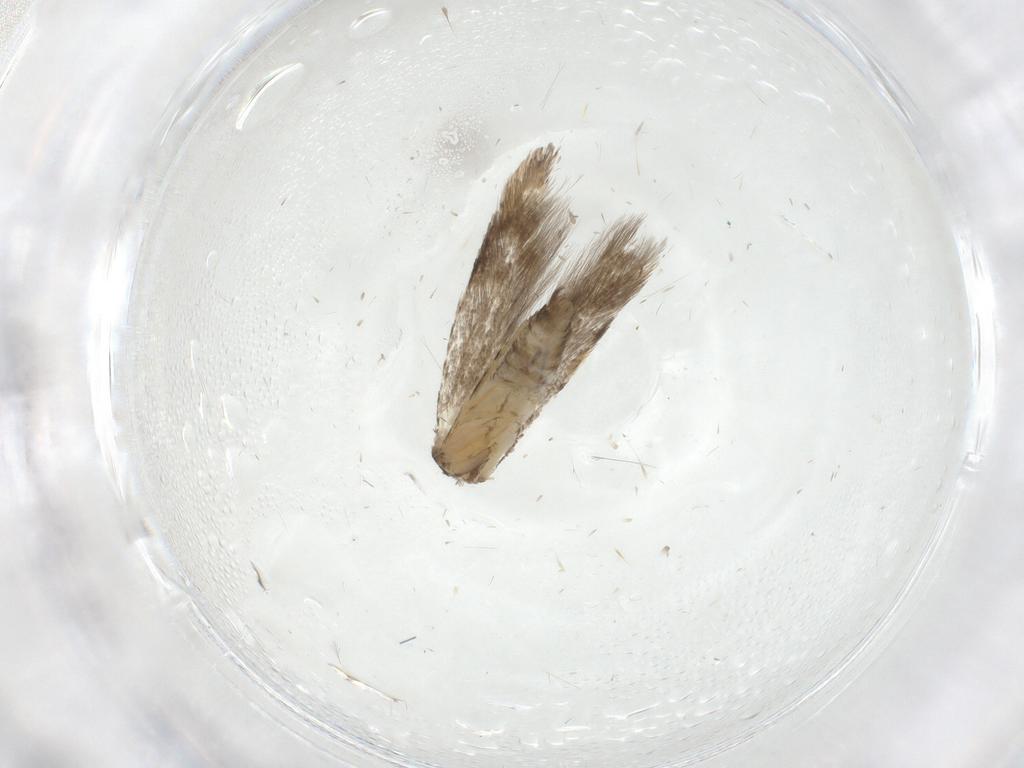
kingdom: Animalia
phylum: Arthropoda
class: Insecta
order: Lepidoptera
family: Tineidae
